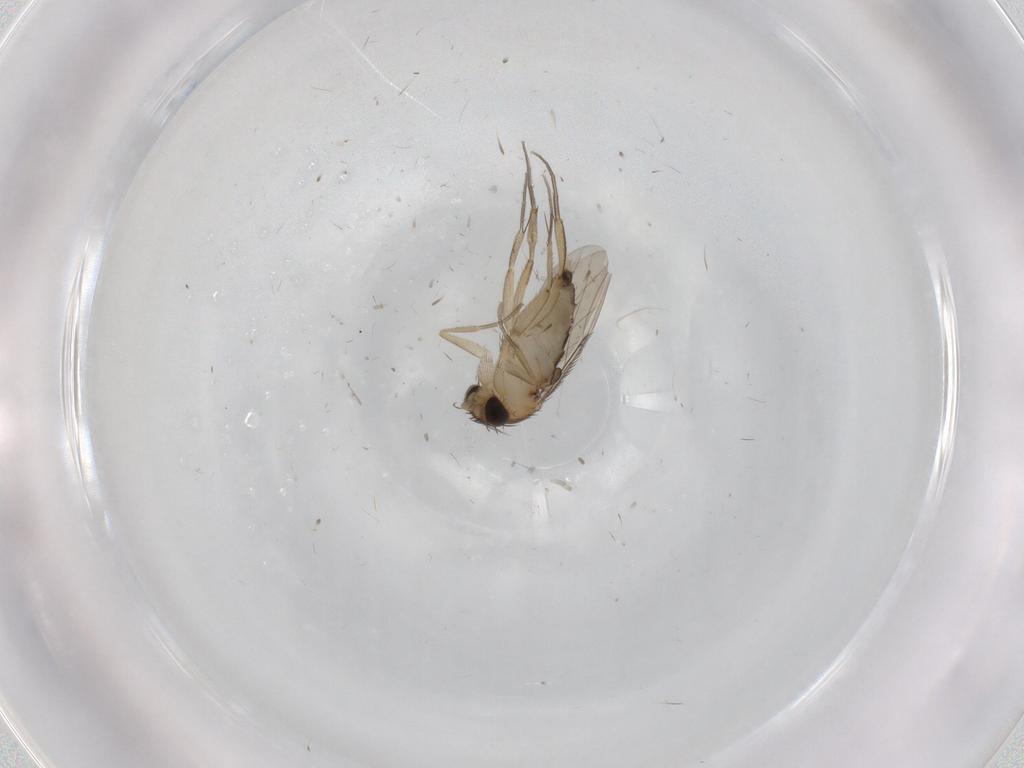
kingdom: Animalia
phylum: Arthropoda
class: Insecta
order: Diptera
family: Phoridae
